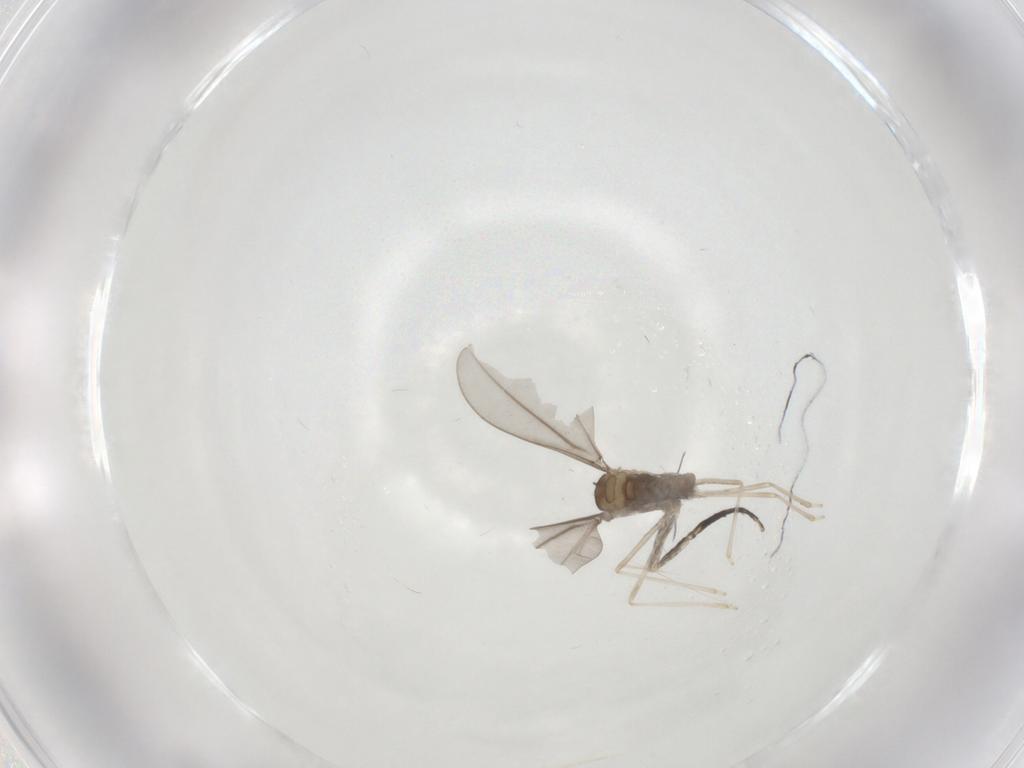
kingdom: Animalia
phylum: Arthropoda
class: Insecta
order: Diptera
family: Cecidomyiidae
